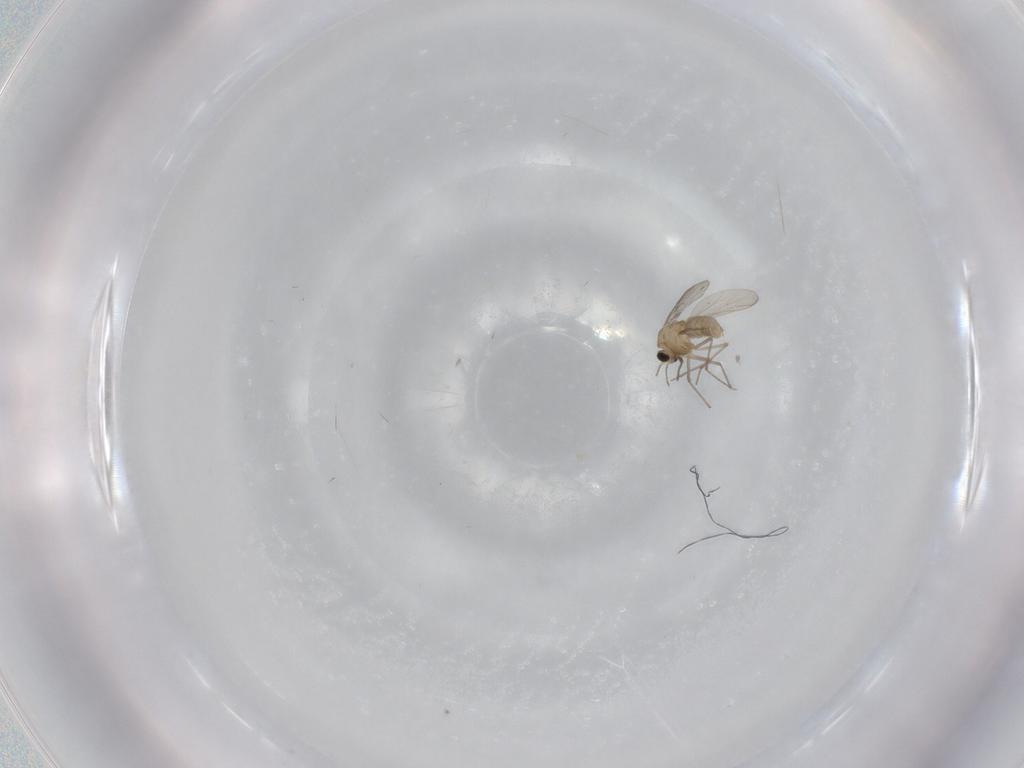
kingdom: Animalia
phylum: Arthropoda
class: Insecta
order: Diptera
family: Chironomidae
